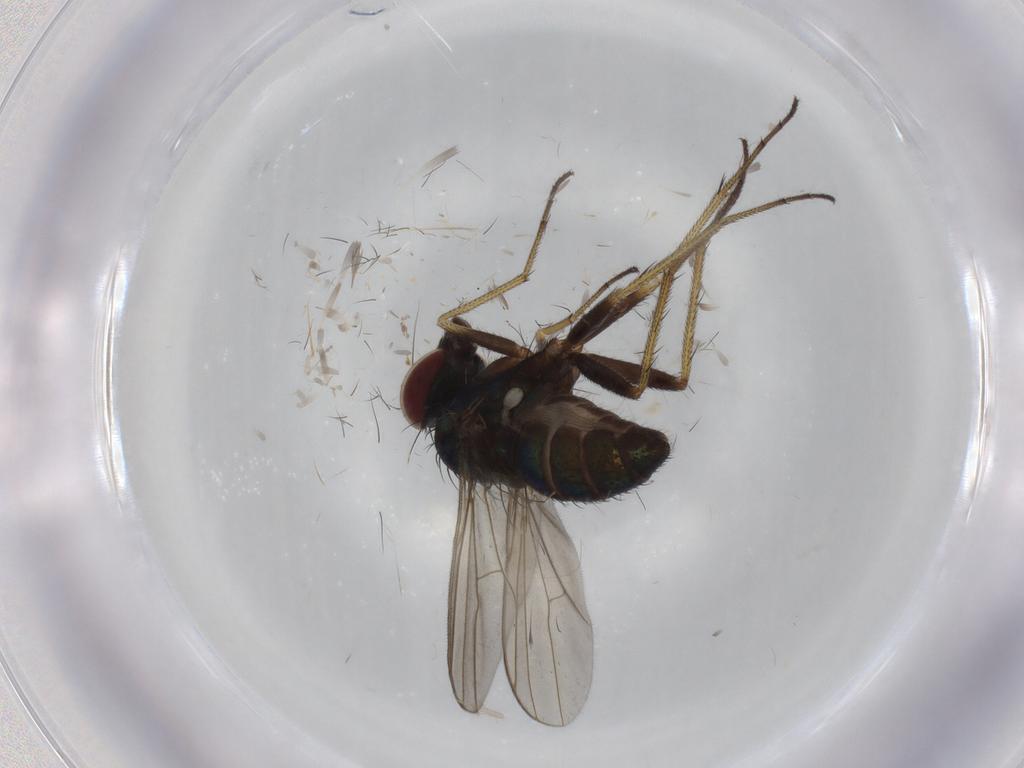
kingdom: Animalia
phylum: Arthropoda
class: Insecta
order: Diptera
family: Dolichopodidae
